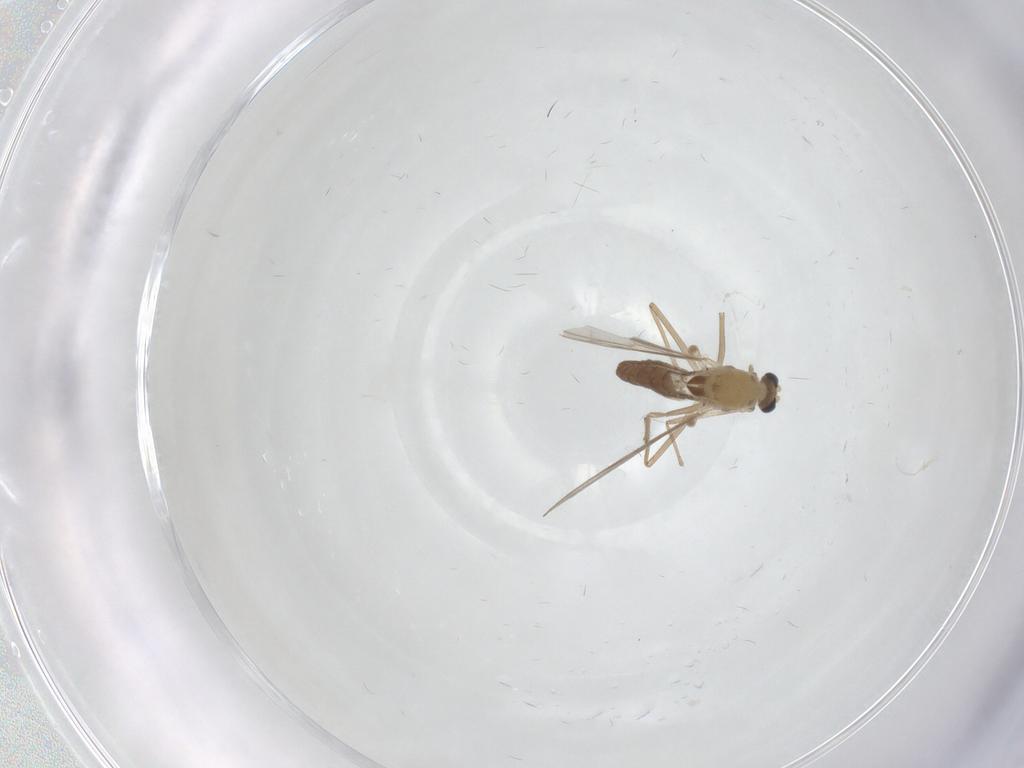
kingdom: Animalia
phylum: Arthropoda
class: Insecta
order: Diptera
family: Chironomidae
